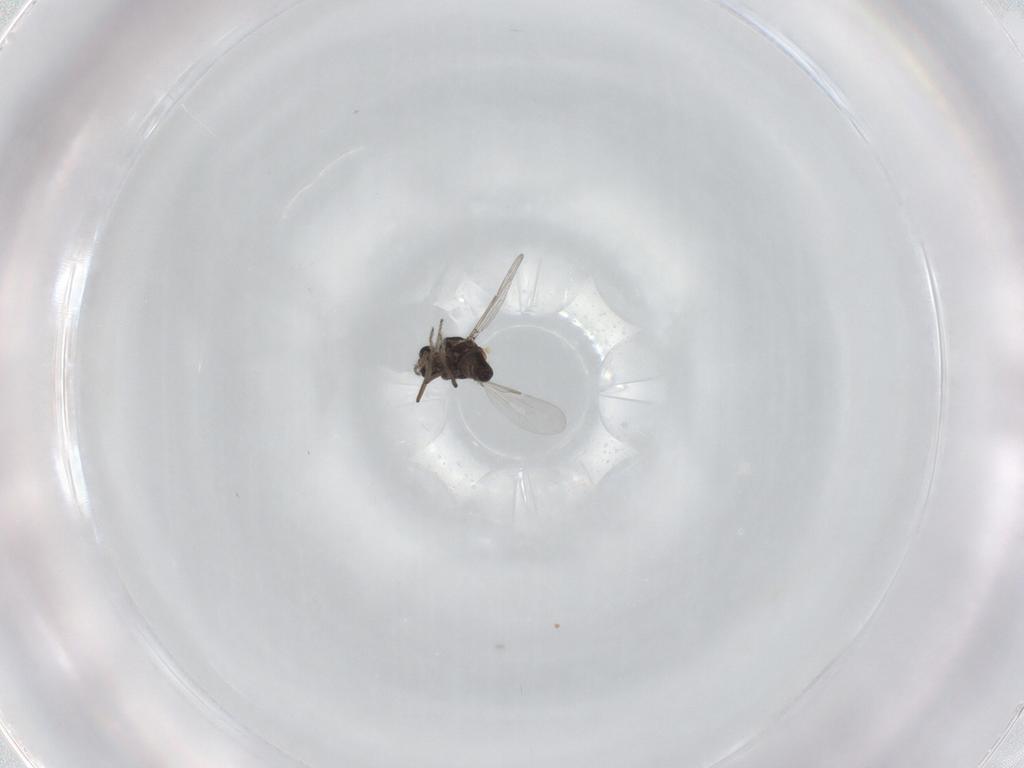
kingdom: Animalia
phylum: Arthropoda
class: Insecta
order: Diptera
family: Ceratopogonidae
